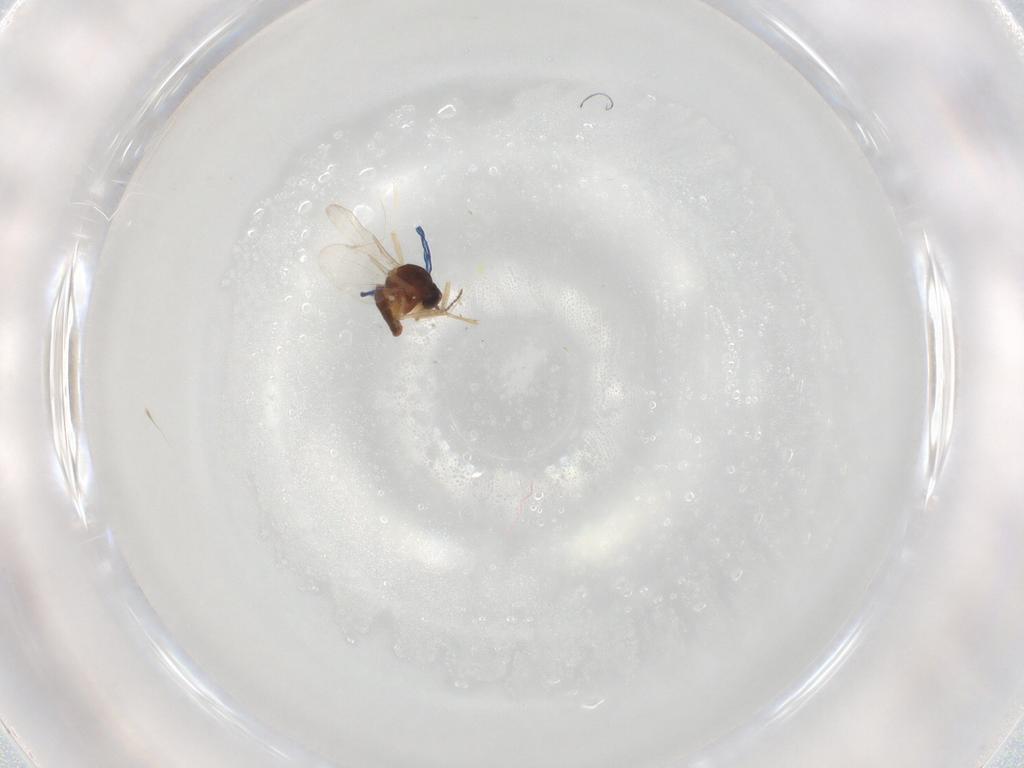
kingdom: Animalia
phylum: Arthropoda
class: Insecta
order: Diptera
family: Ceratopogonidae
